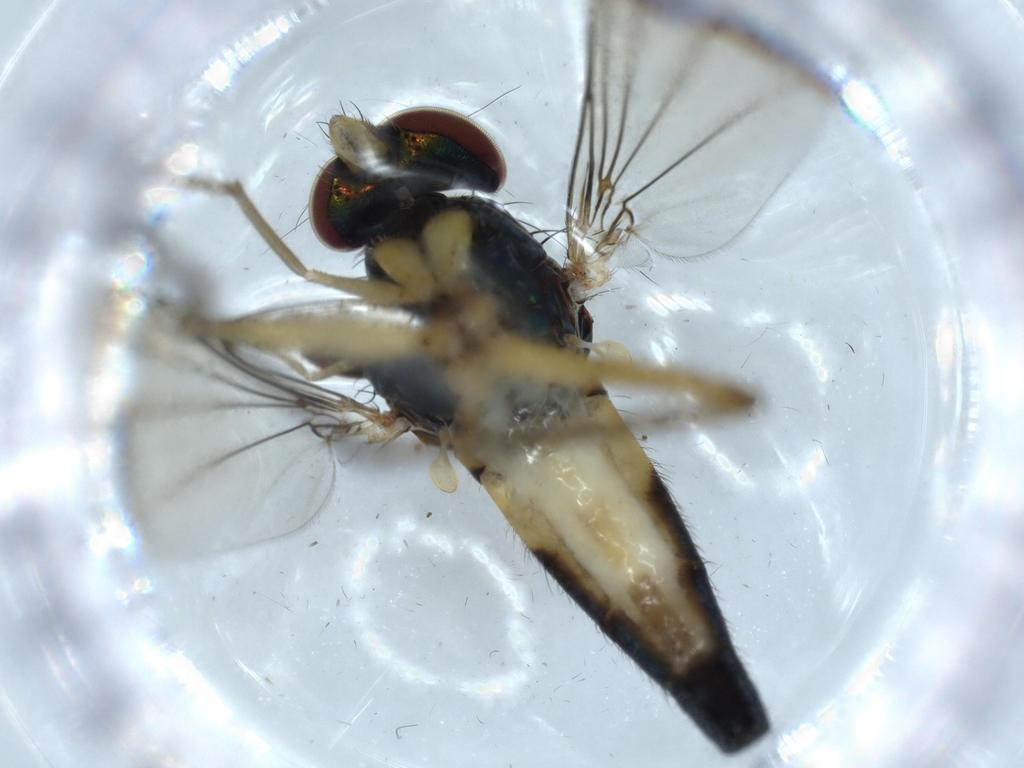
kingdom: Animalia
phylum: Arthropoda
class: Insecta
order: Diptera
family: Dolichopodidae
